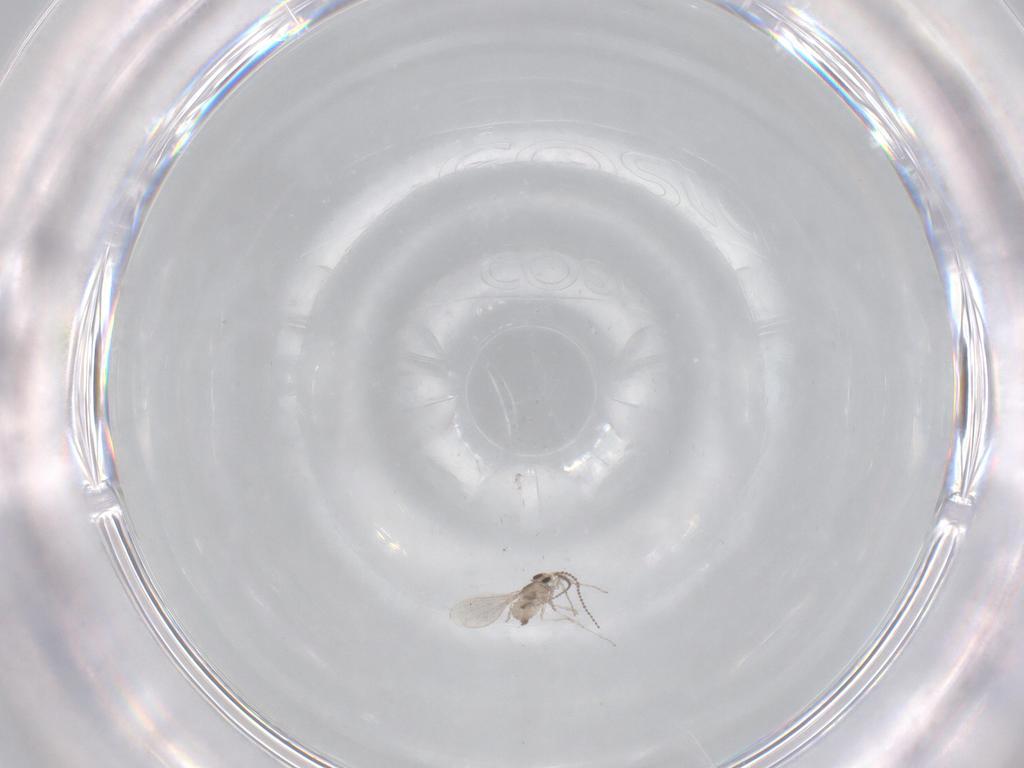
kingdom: Animalia
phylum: Arthropoda
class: Insecta
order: Diptera
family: Cecidomyiidae
